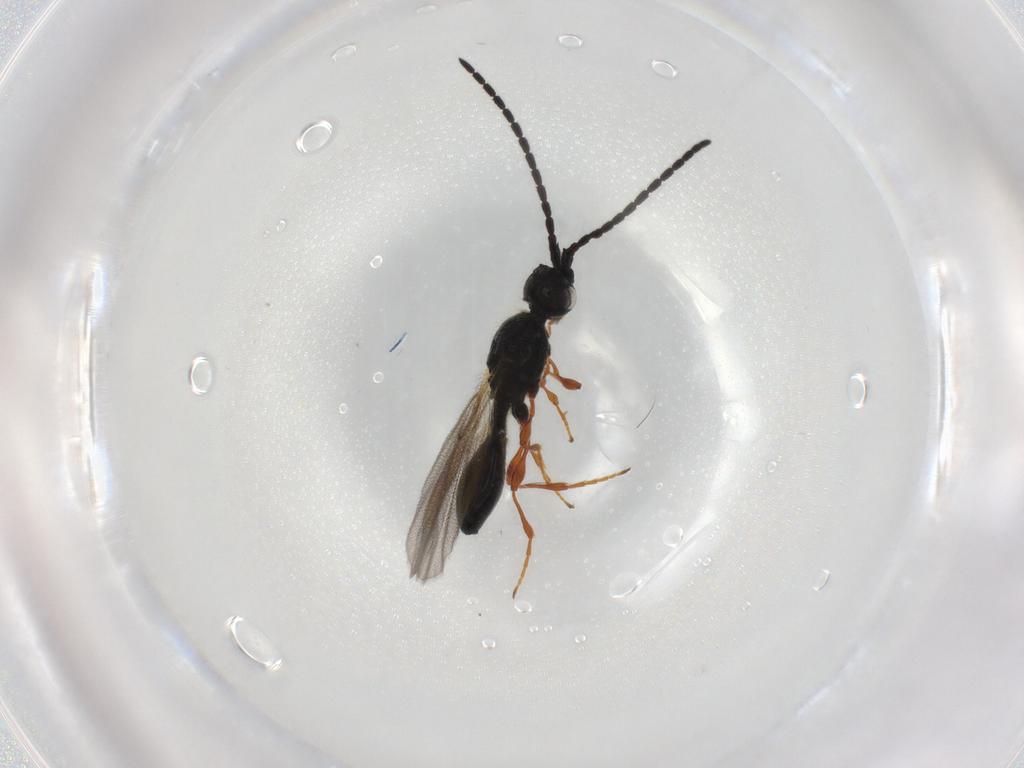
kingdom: Animalia
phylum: Arthropoda
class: Insecta
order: Hymenoptera
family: Diapriidae
